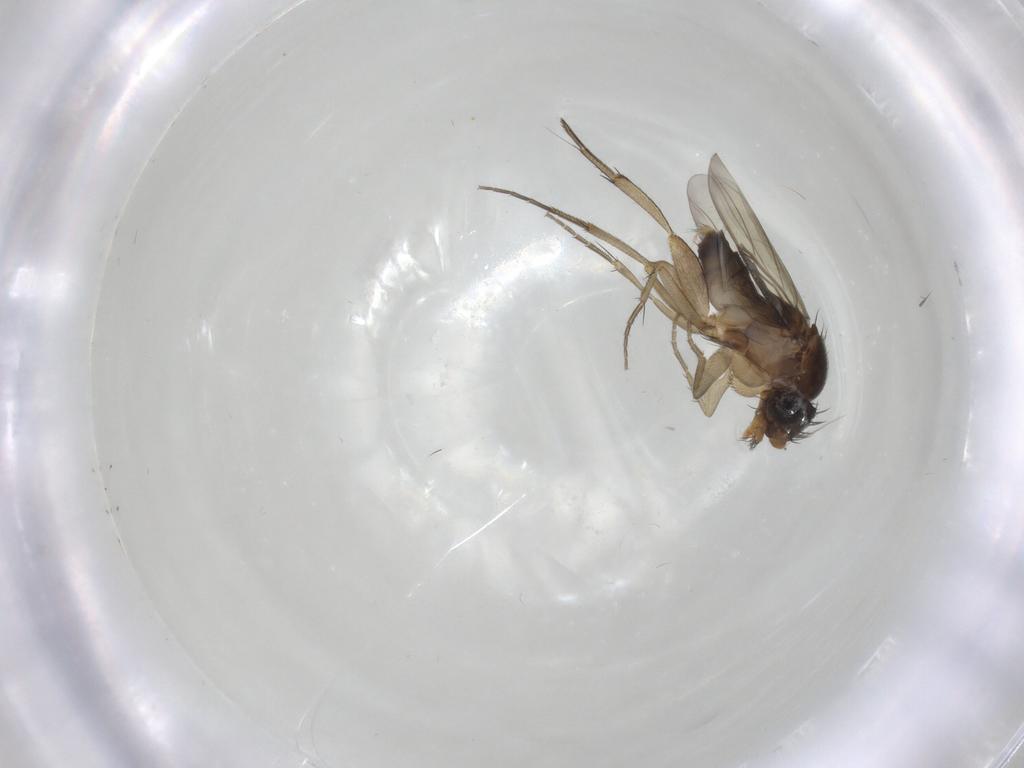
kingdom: Animalia
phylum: Arthropoda
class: Insecta
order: Diptera
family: Phoridae
